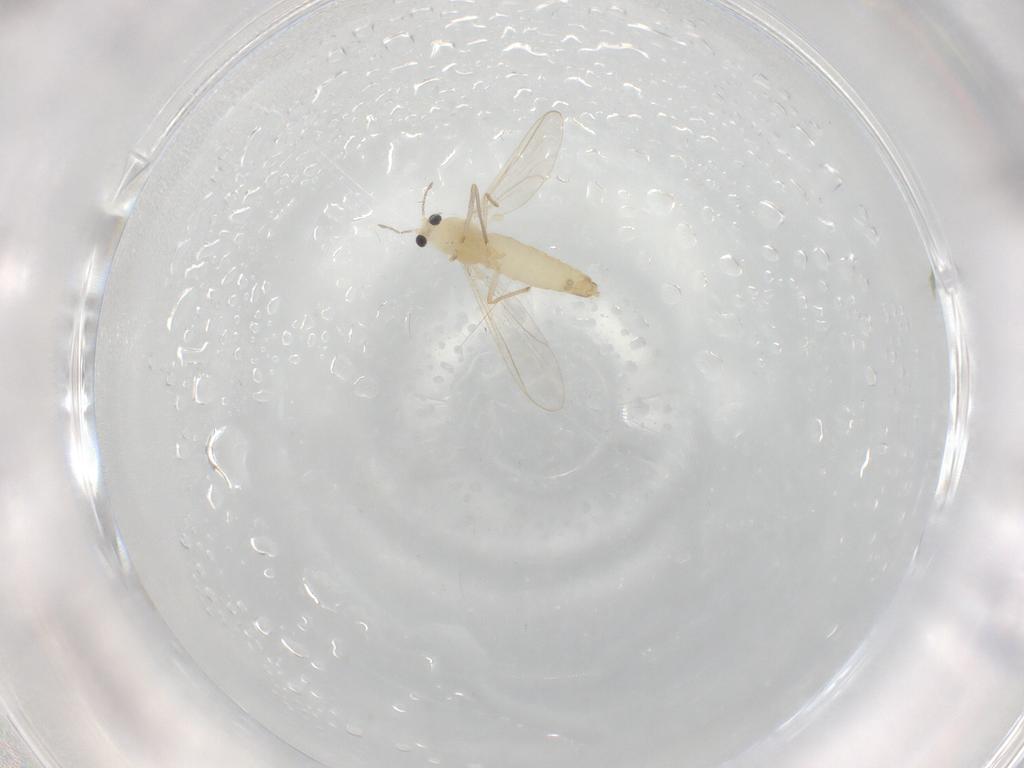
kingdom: Animalia
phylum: Arthropoda
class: Insecta
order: Diptera
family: Chironomidae
